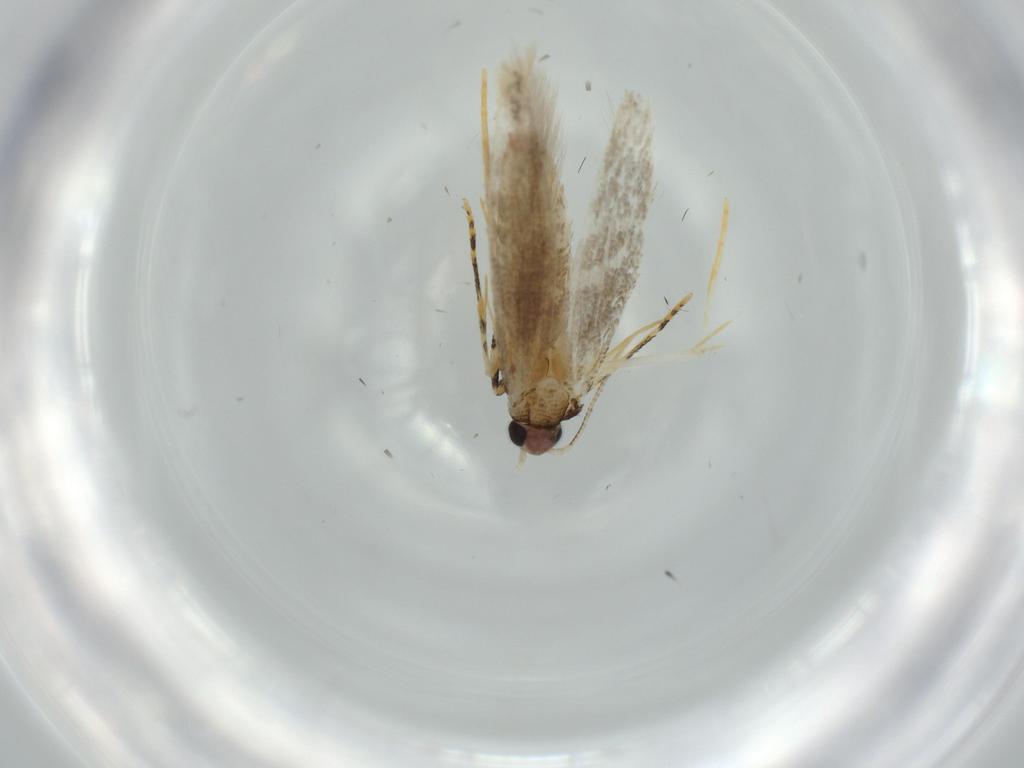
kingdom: Animalia
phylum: Arthropoda
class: Insecta
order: Lepidoptera
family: Tineidae
